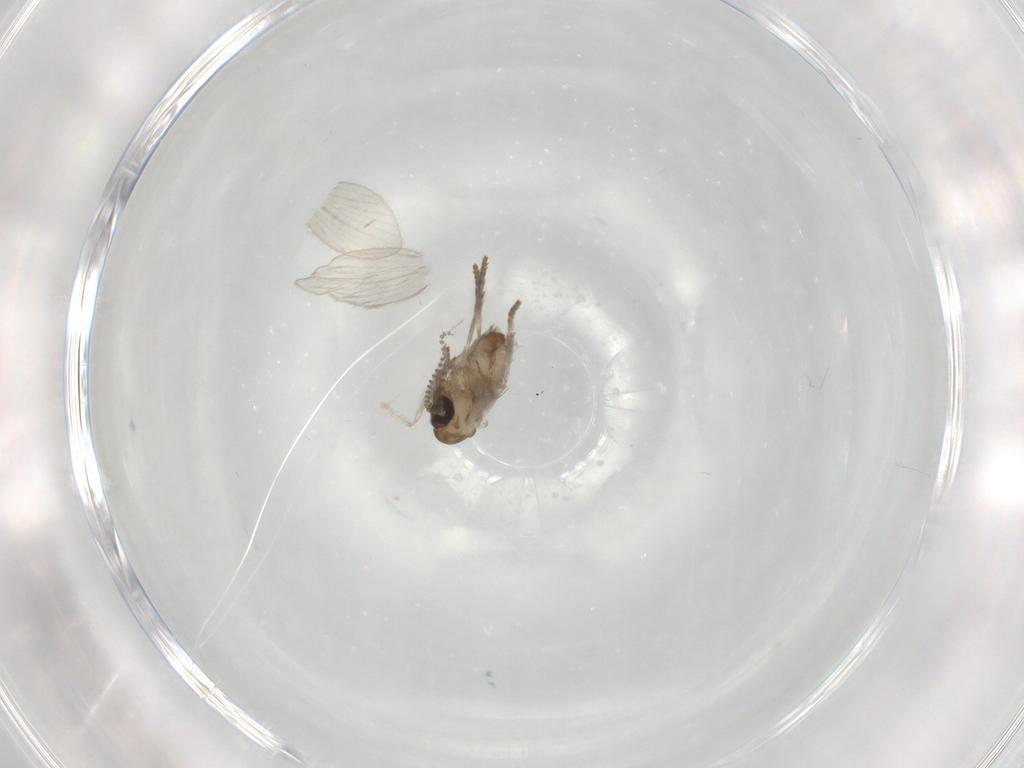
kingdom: Animalia
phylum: Arthropoda
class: Insecta
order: Diptera
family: Psychodidae
